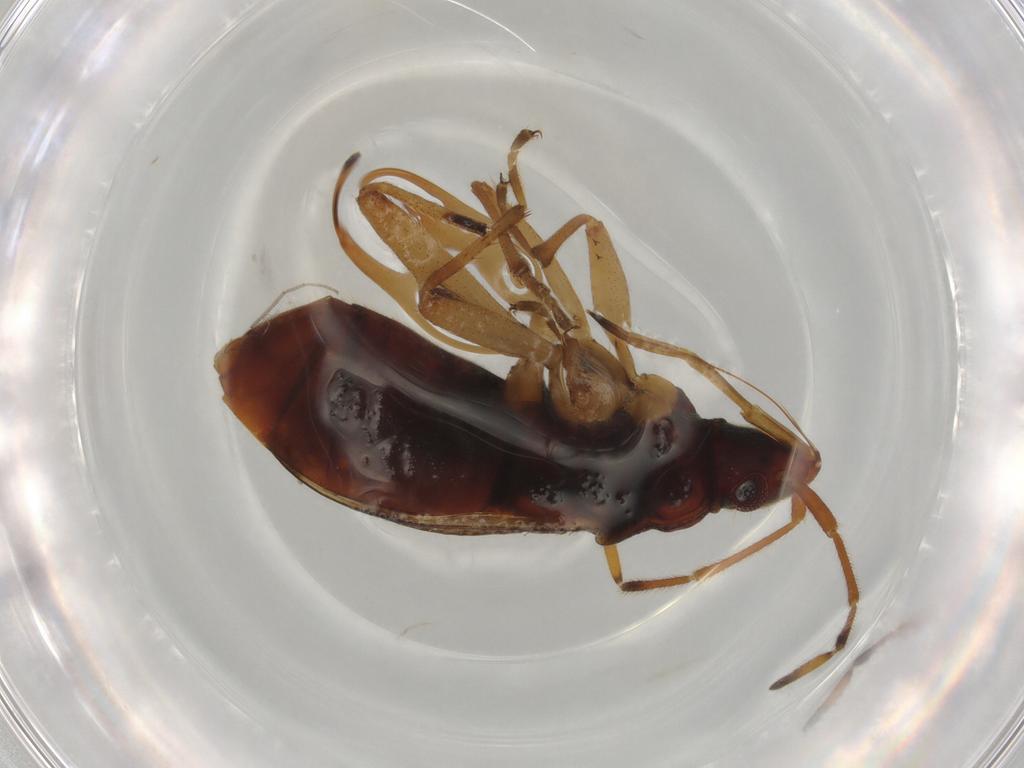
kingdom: Animalia
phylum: Arthropoda
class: Insecta
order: Hemiptera
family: Rhyparochromidae
